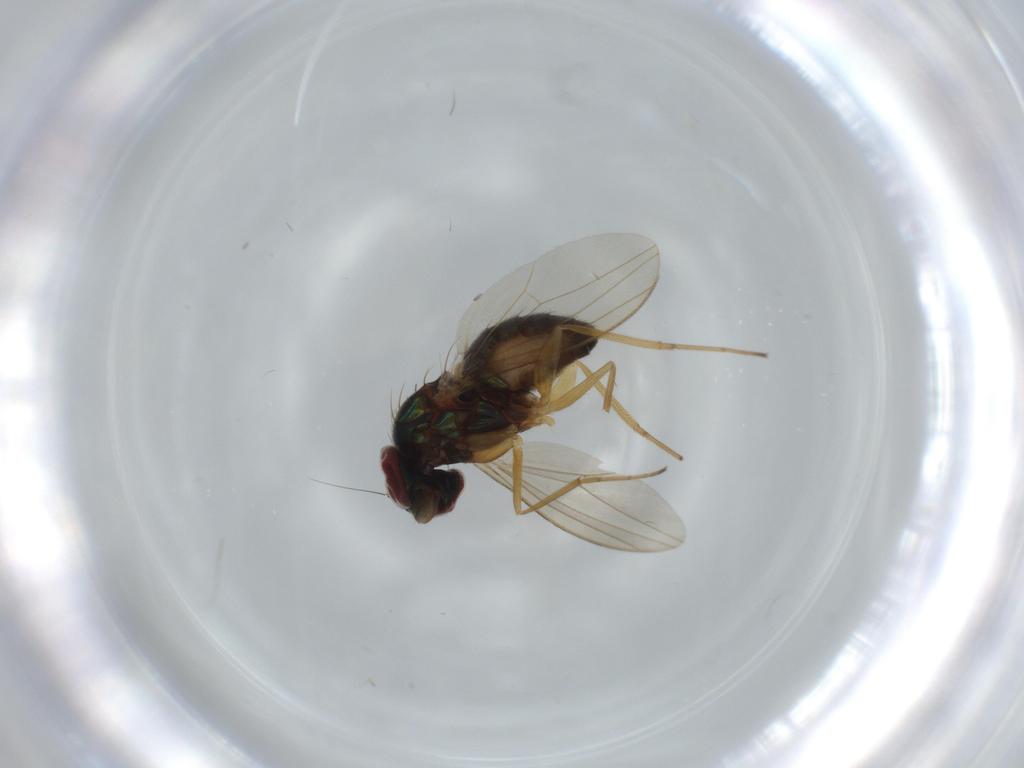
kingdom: Animalia
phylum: Arthropoda
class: Insecta
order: Diptera
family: Dolichopodidae
